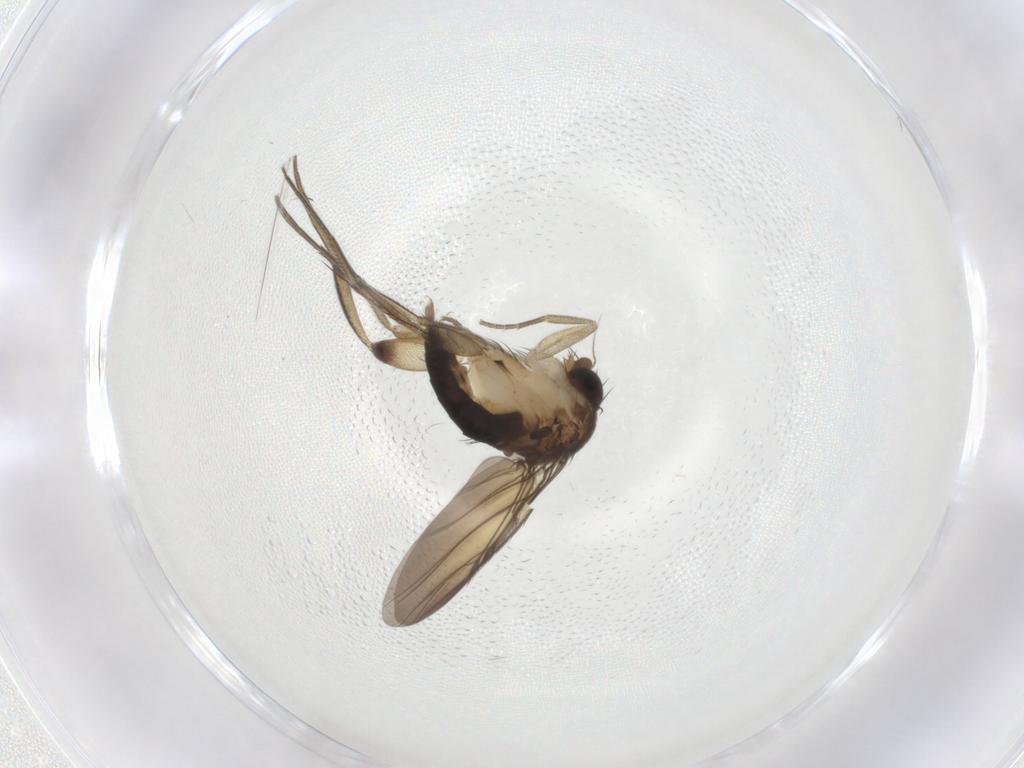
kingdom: Animalia
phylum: Arthropoda
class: Insecta
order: Diptera
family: Phoridae
